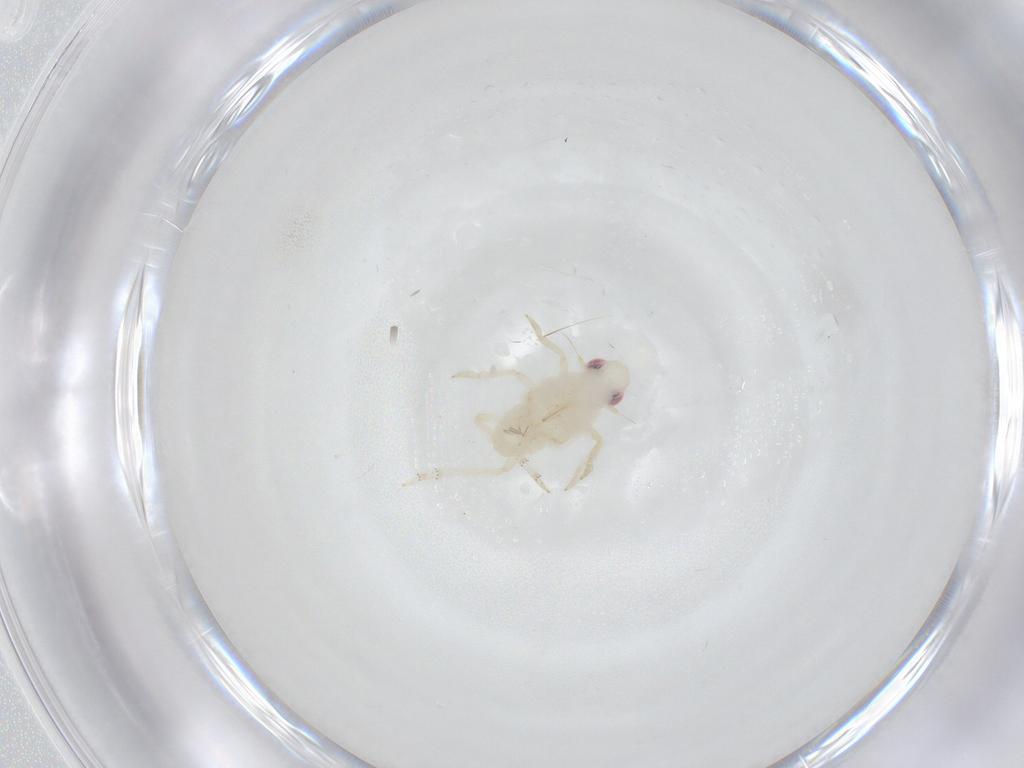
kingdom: Animalia
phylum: Arthropoda
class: Insecta
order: Hemiptera
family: Tropiduchidae
